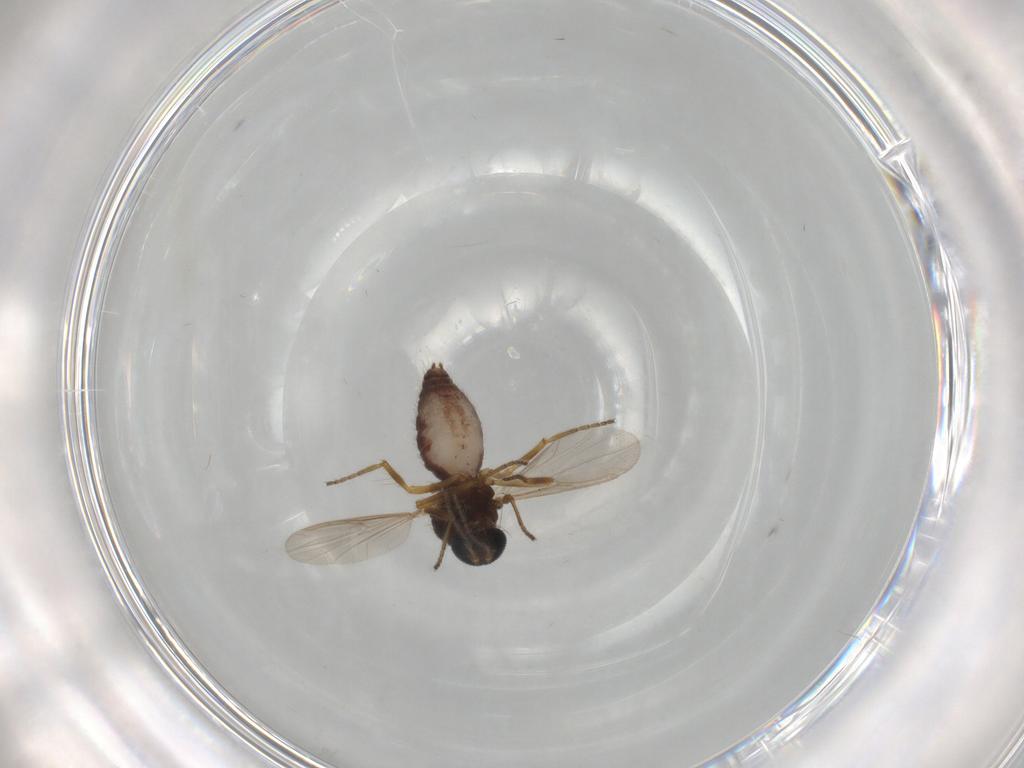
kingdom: Animalia
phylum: Arthropoda
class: Insecta
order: Diptera
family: Ceratopogonidae
